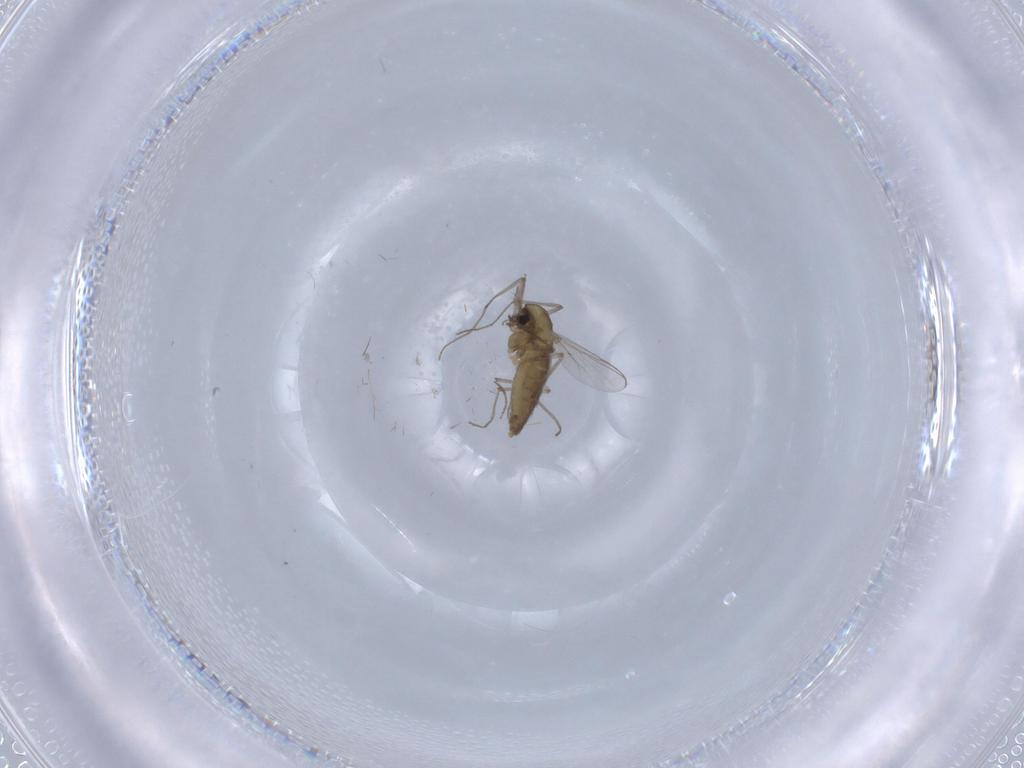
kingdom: Animalia
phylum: Arthropoda
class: Insecta
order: Diptera
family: Chironomidae
